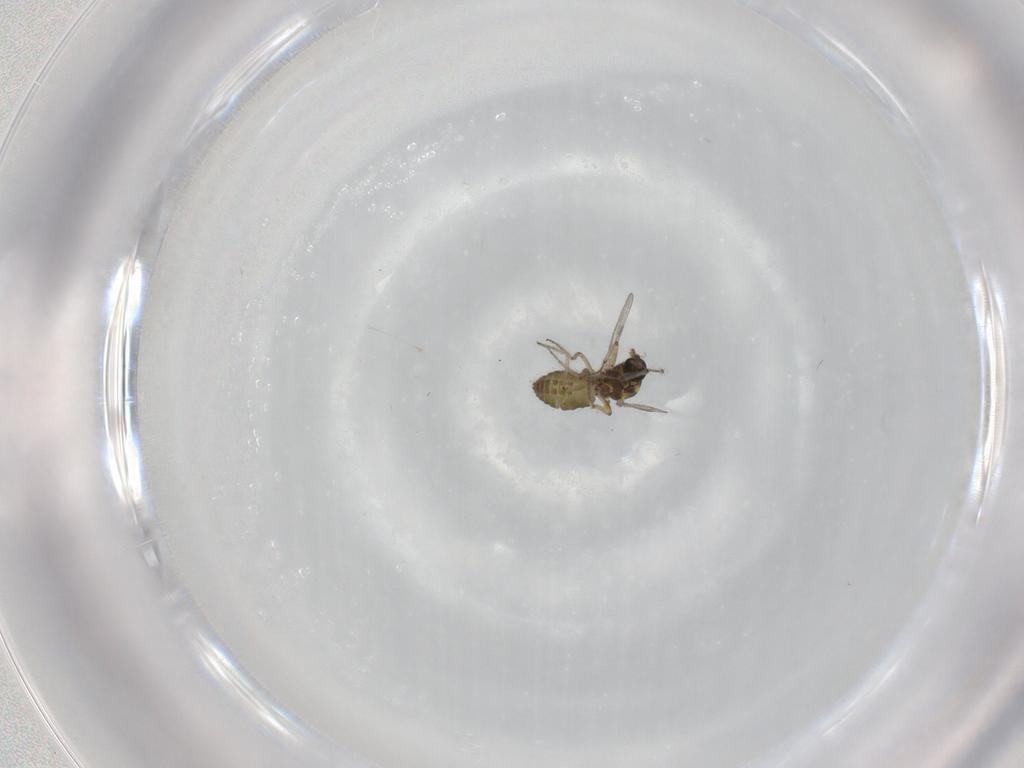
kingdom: Animalia
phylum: Arthropoda
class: Insecta
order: Diptera
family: Ceratopogonidae
